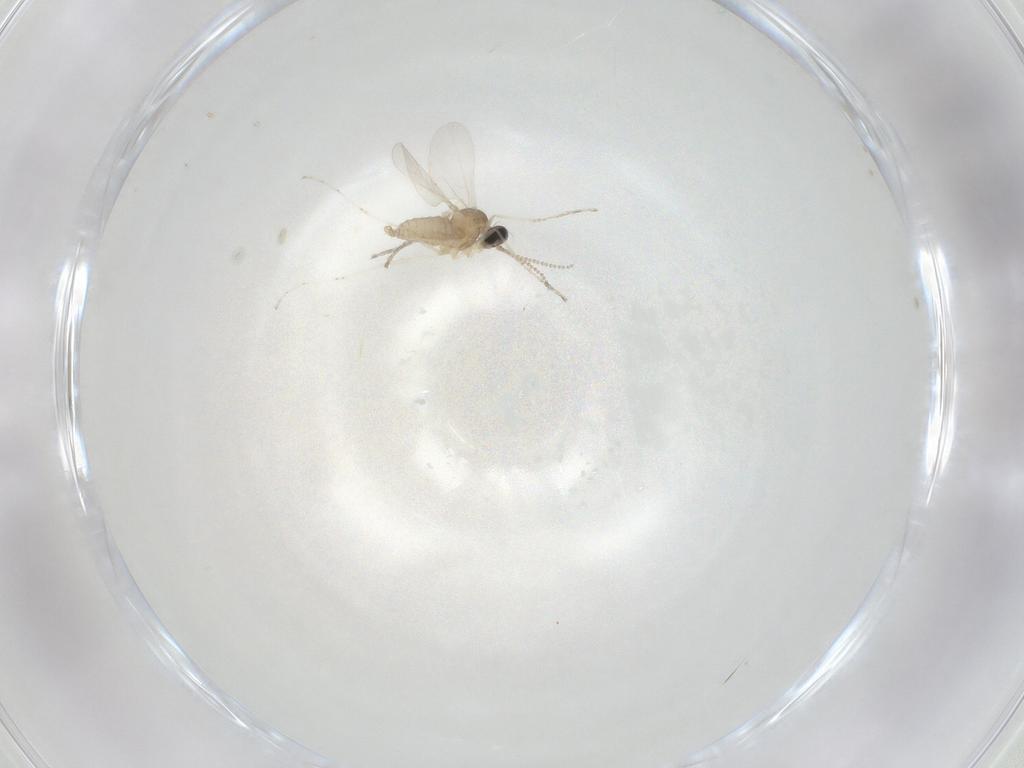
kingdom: Animalia
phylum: Arthropoda
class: Insecta
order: Diptera
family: Cecidomyiidae
